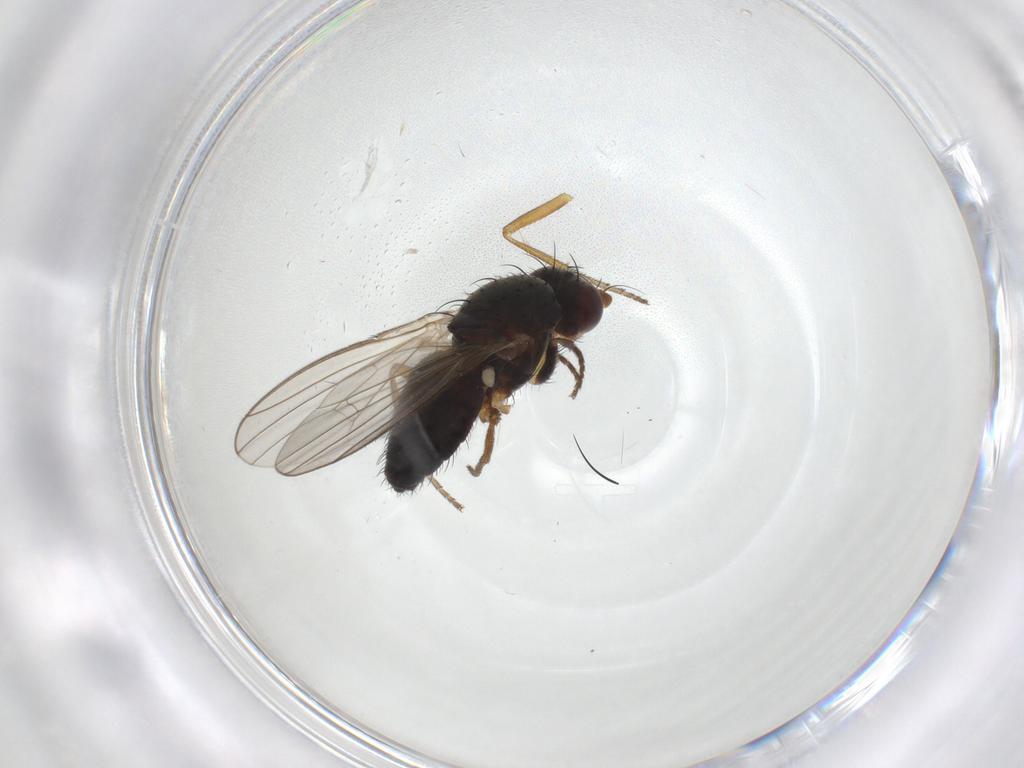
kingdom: Animalia
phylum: Arthropoda
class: Insecta
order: Diptera
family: Heleomyzidae
